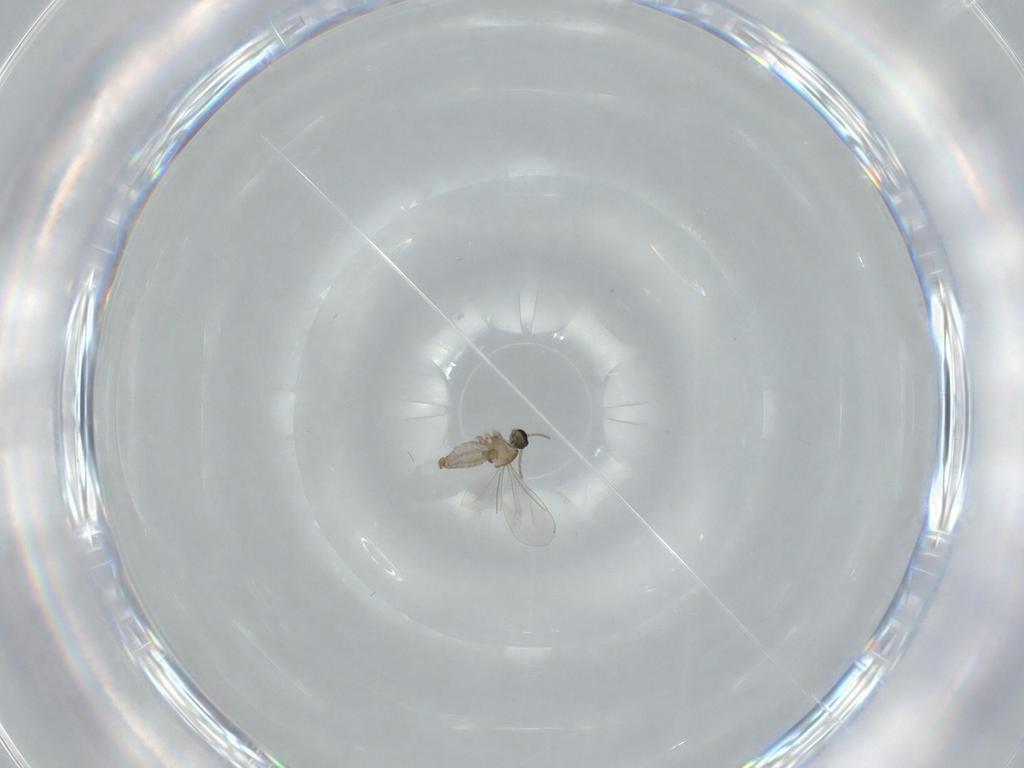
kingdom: Animalia
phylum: Arthropoda
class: Insecta
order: Diptera
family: Cecidomyiidae
